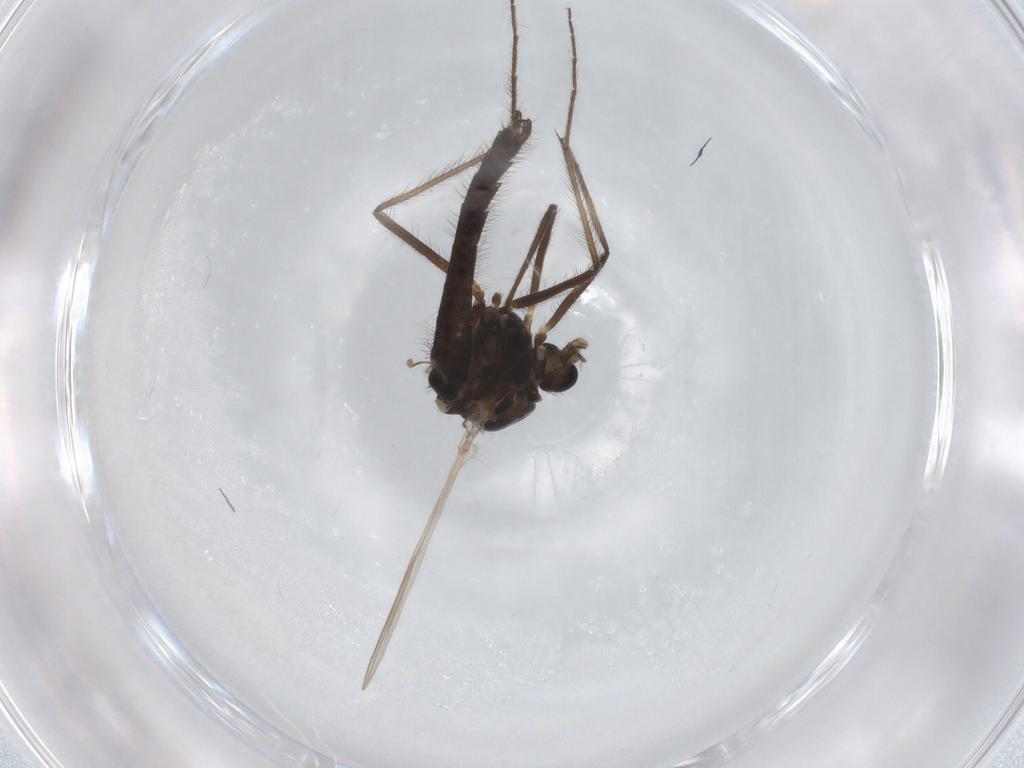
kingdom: Animalia
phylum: Arthropoda
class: Insecta
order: Diptera
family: Chironomidae
